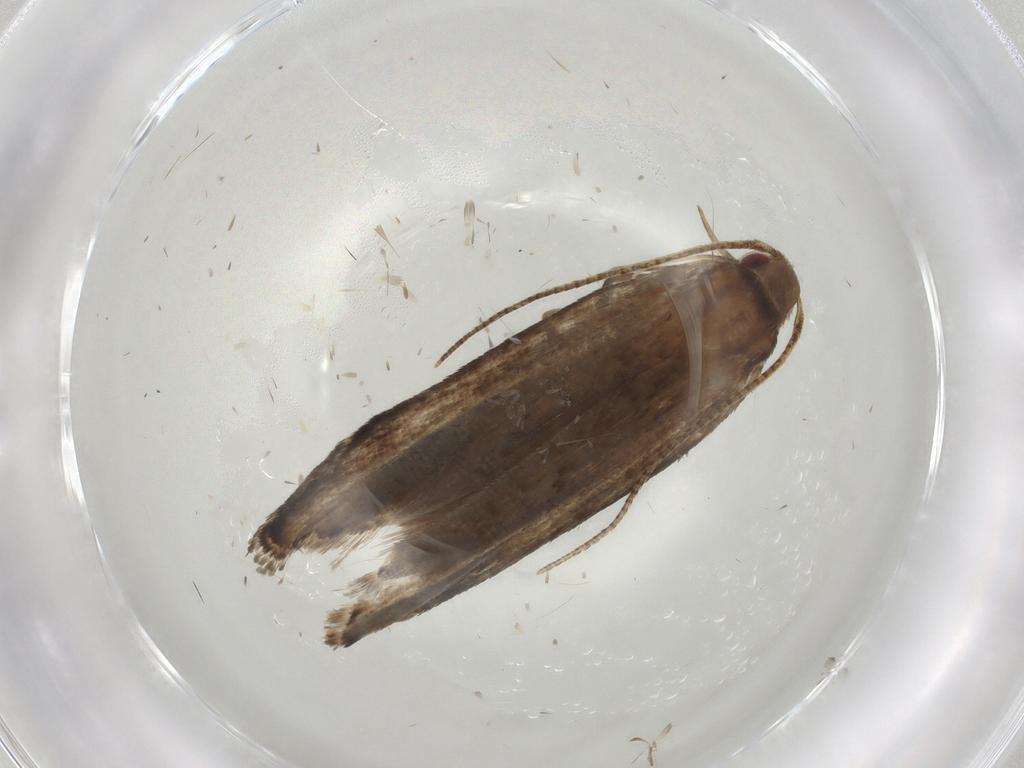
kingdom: Animalia
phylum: Arthropoda
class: Insecta
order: Lepidoptera
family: Gelechiidae
